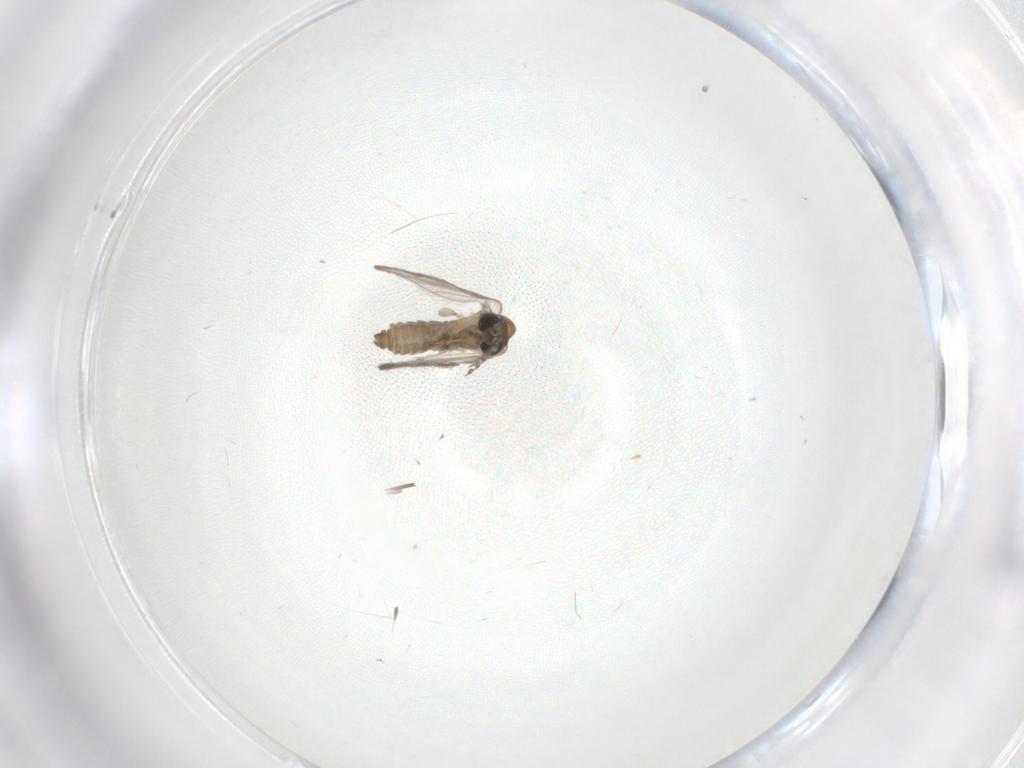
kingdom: Animalia
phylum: Arthropoda
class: Insecta
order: Diptera
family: Psychodidae
